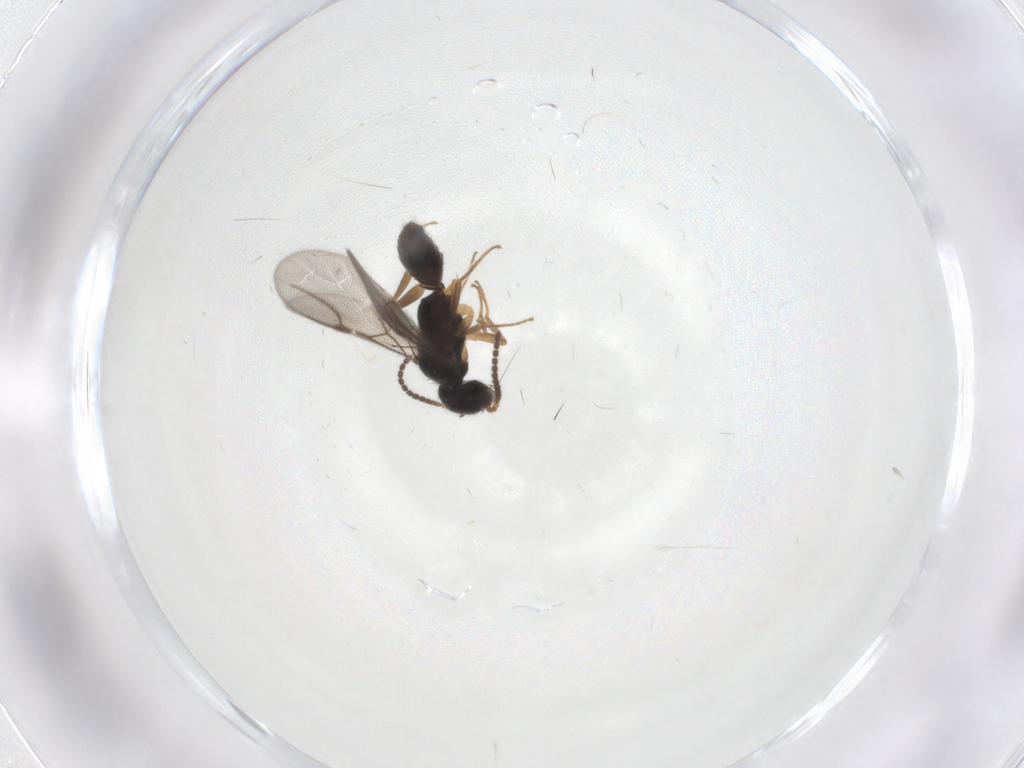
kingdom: Animalia
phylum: Arthropoda
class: Insecta
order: Hymenoptera
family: Bethylidae
